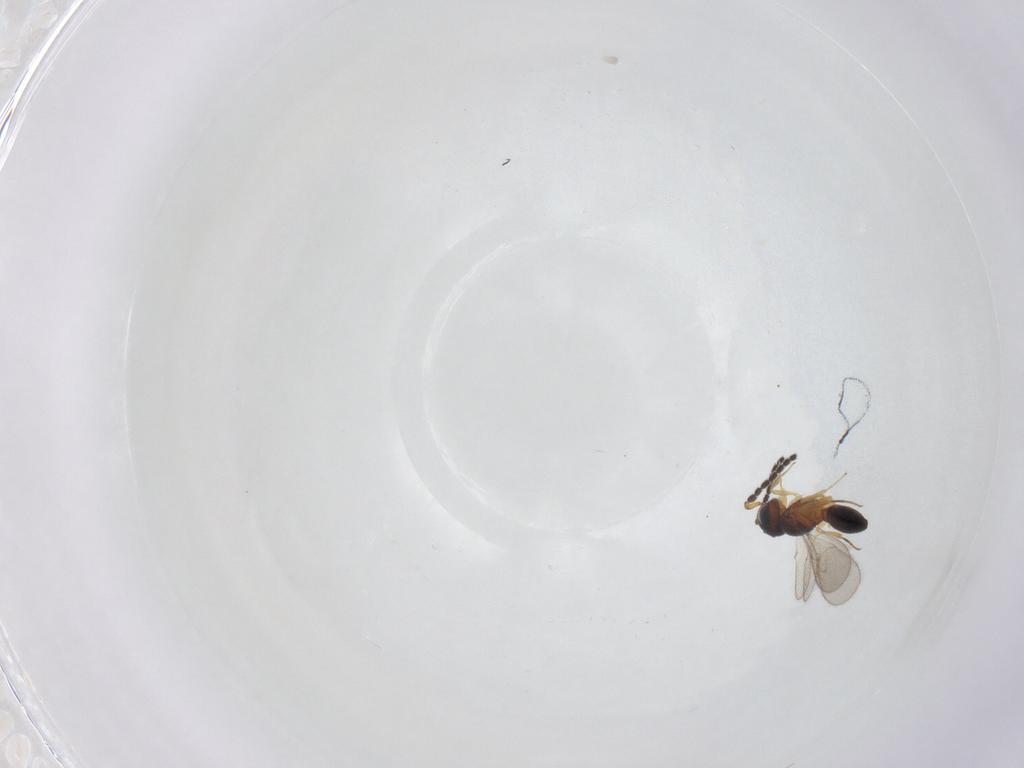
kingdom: Animalia
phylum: Arthropoda
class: Insecta
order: Hymenoptera
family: Scelionidae
